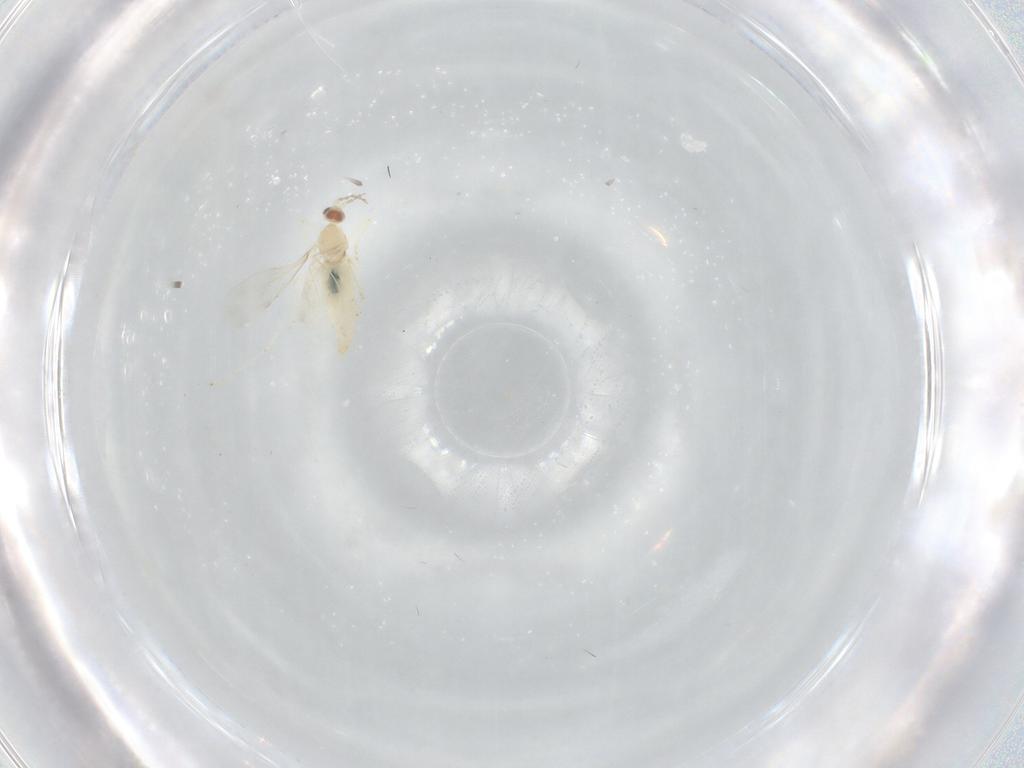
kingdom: Animalia
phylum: Arthropoda
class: Insecta
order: Diptera
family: Cecidomyiidae
